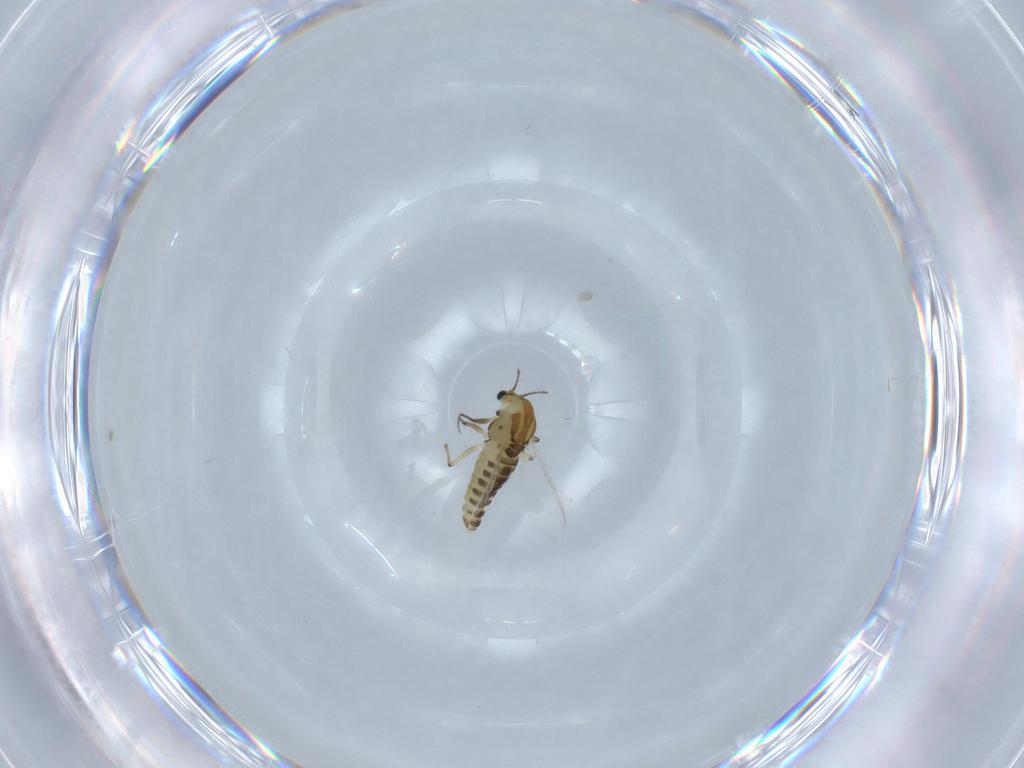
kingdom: Animalia
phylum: Arthropoda
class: Insecta
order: Diptera
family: Chironomidae
